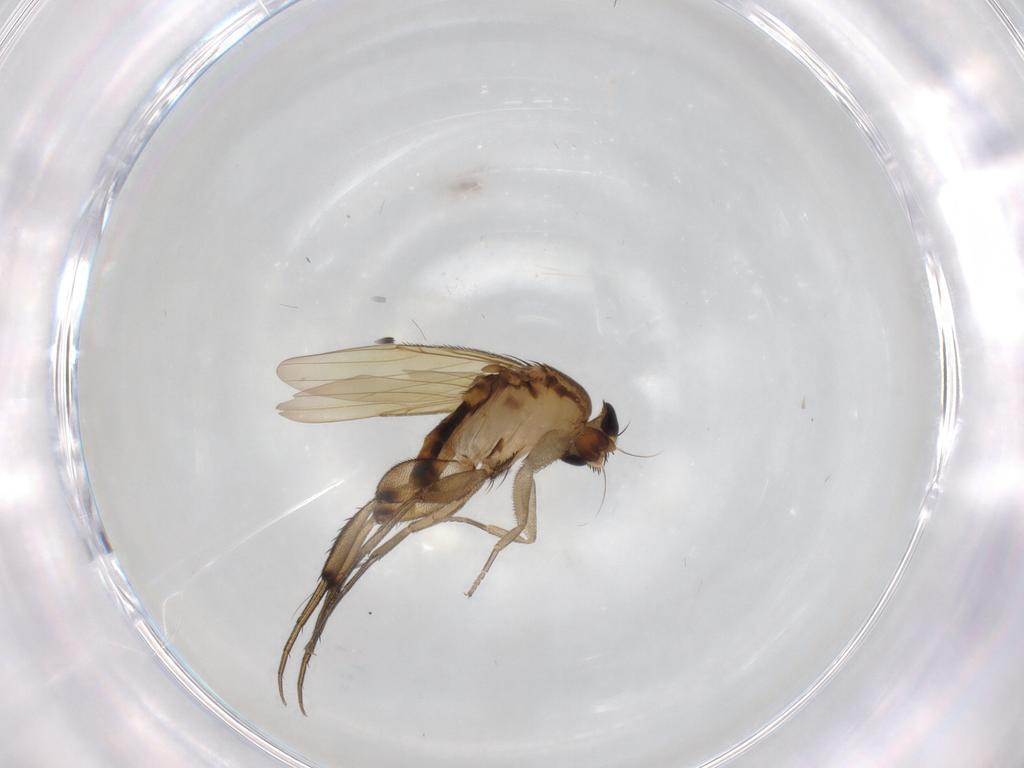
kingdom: Animalia
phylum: Arthropoda
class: Insecta
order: Diptera
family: Phoridae
